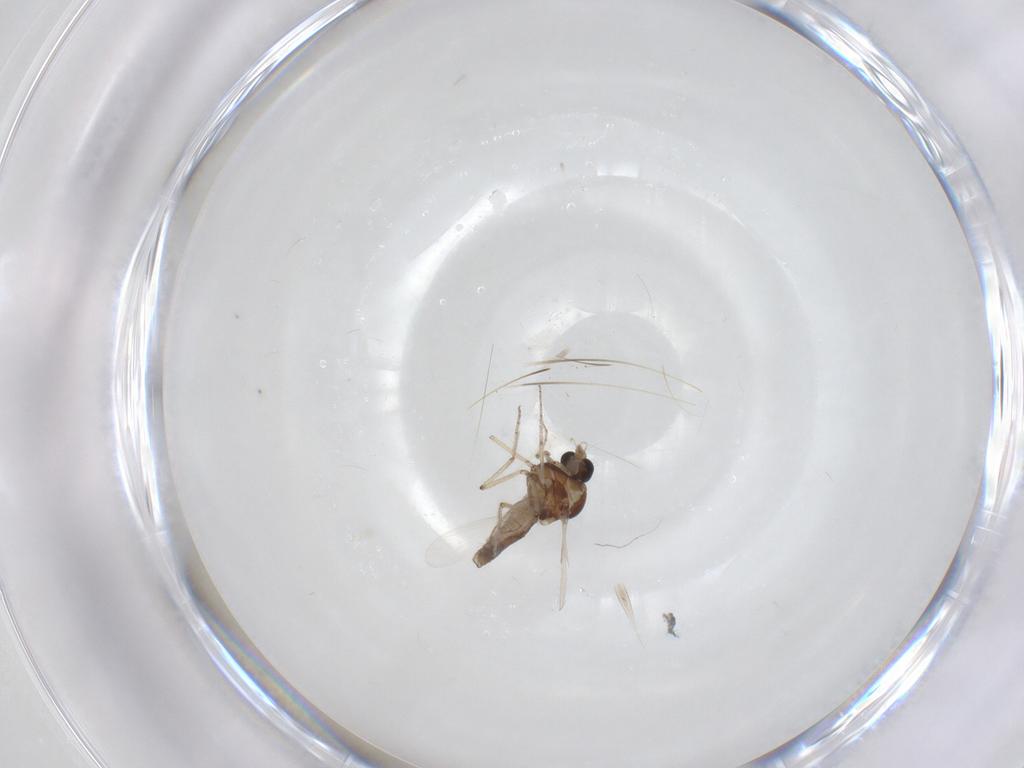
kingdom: Animalia
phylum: Arthropoda
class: Insecta
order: Diptera
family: Ceratopogonidae
